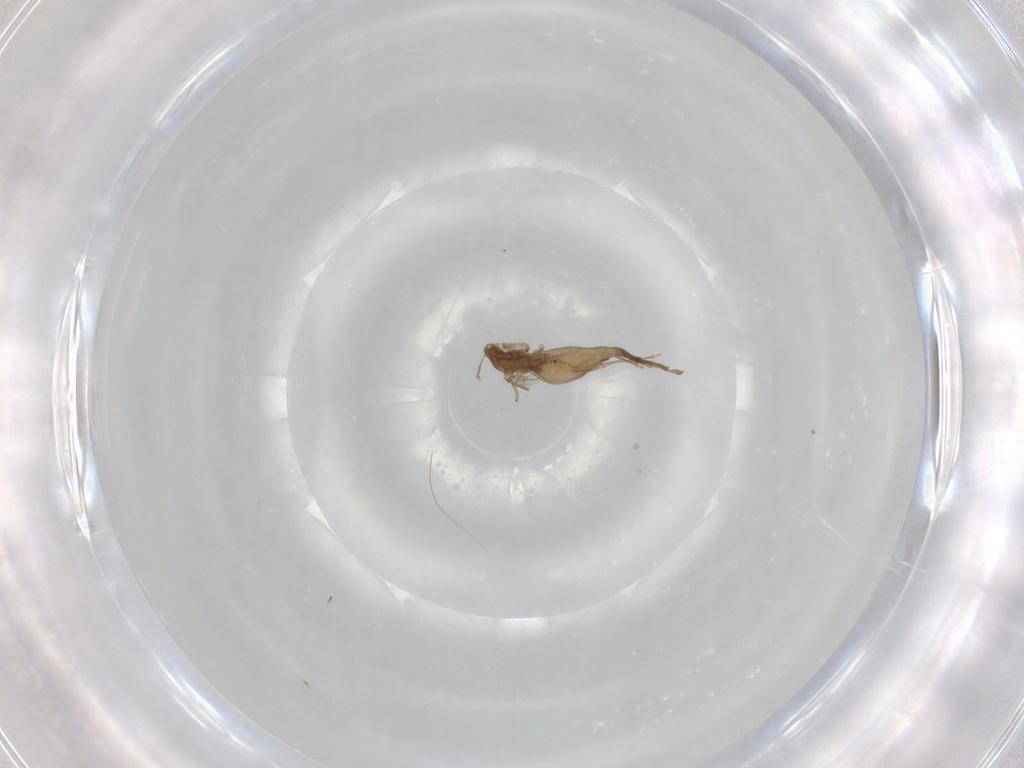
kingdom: Animalia
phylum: Arthropoda
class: Insecta
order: Diptera
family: Cecidomyiidae
